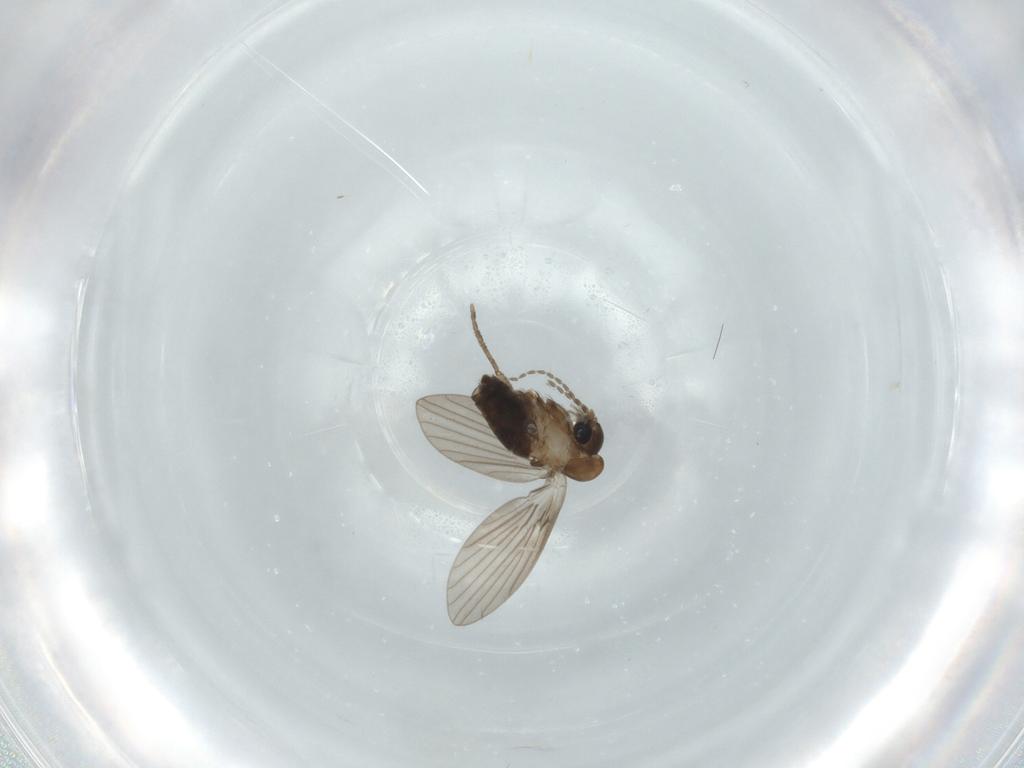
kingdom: Animalia
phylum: Arthropoda
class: Insecta
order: Diptera
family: Psychodidae
